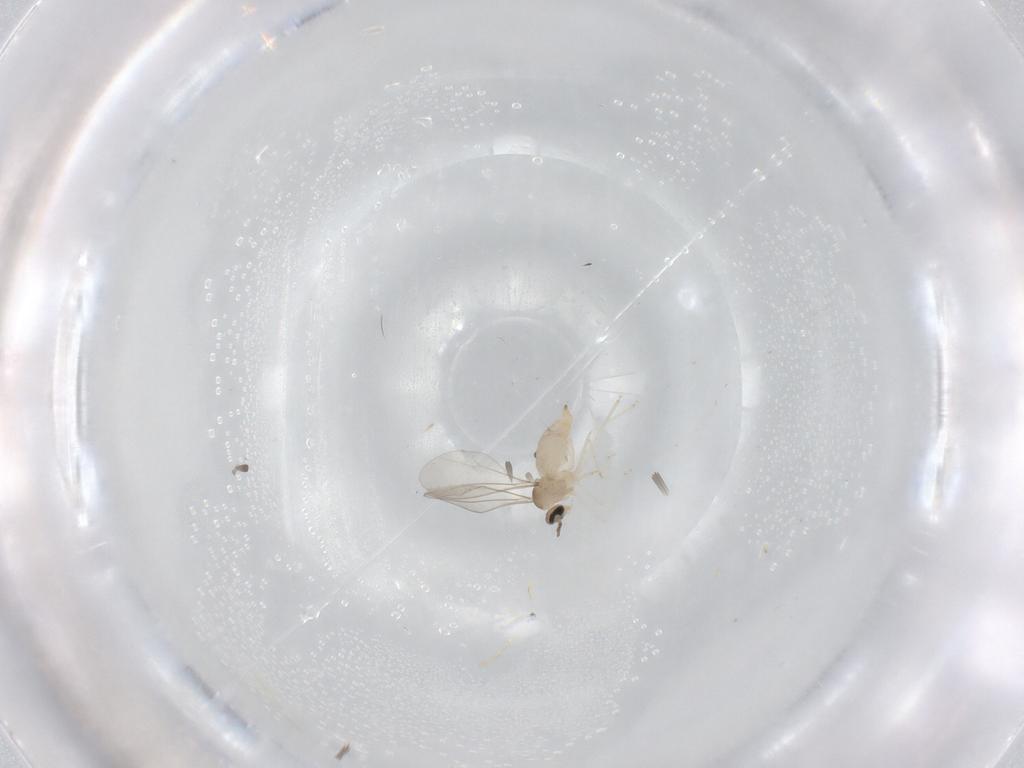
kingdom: Animalia
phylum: Arthropoda
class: Insecta
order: Diptera
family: Cecidomyiidae
